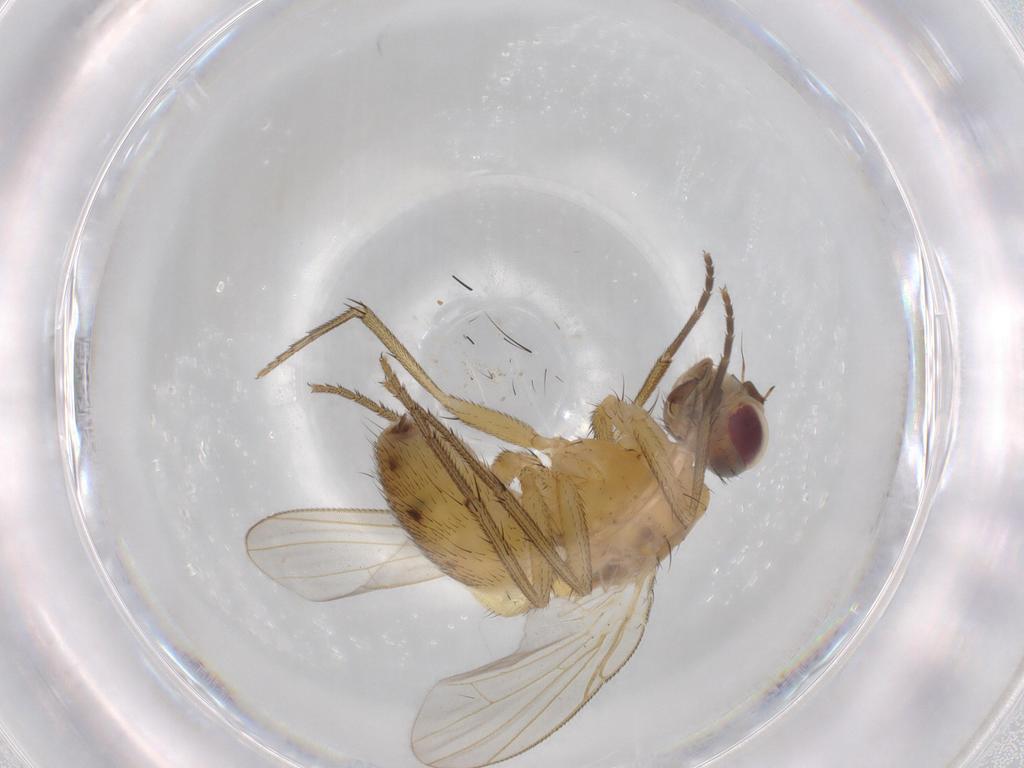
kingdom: Animalia
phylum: Arthropoda
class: Insecta
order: Diptera
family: Muscidae
